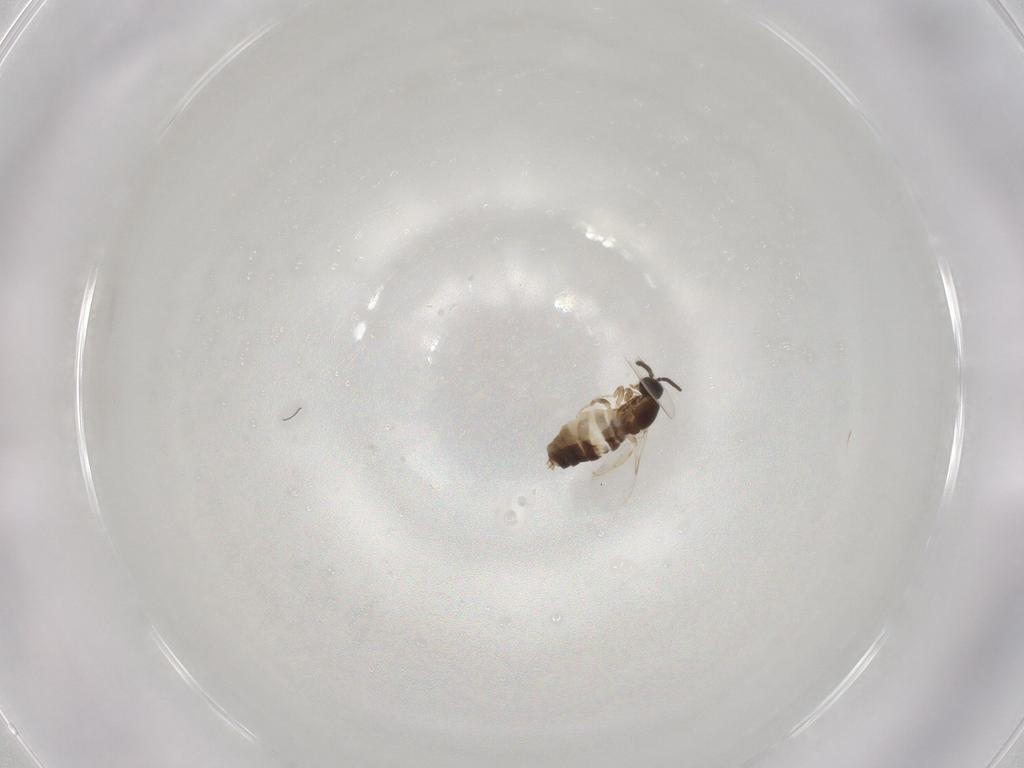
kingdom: Animalia
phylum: Arthropoda
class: Insecta
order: Diptera
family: Scatopsidae
